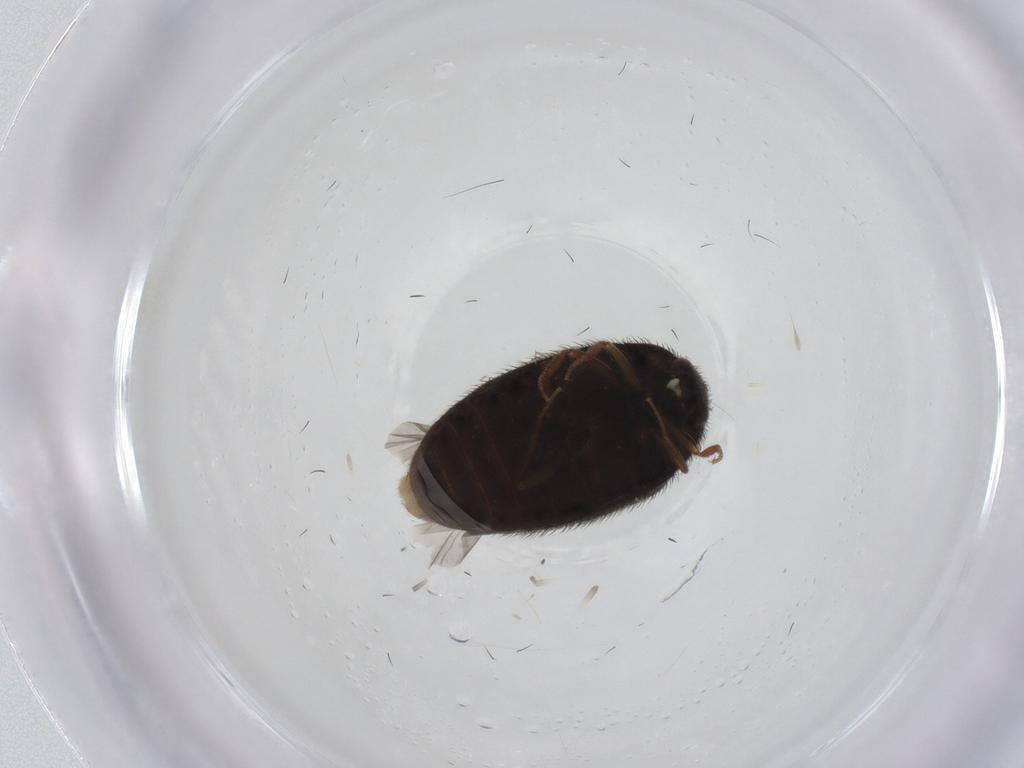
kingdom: Animalia
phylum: Arthropoda
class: Insecta
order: Coleoptera
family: Dermestidae
